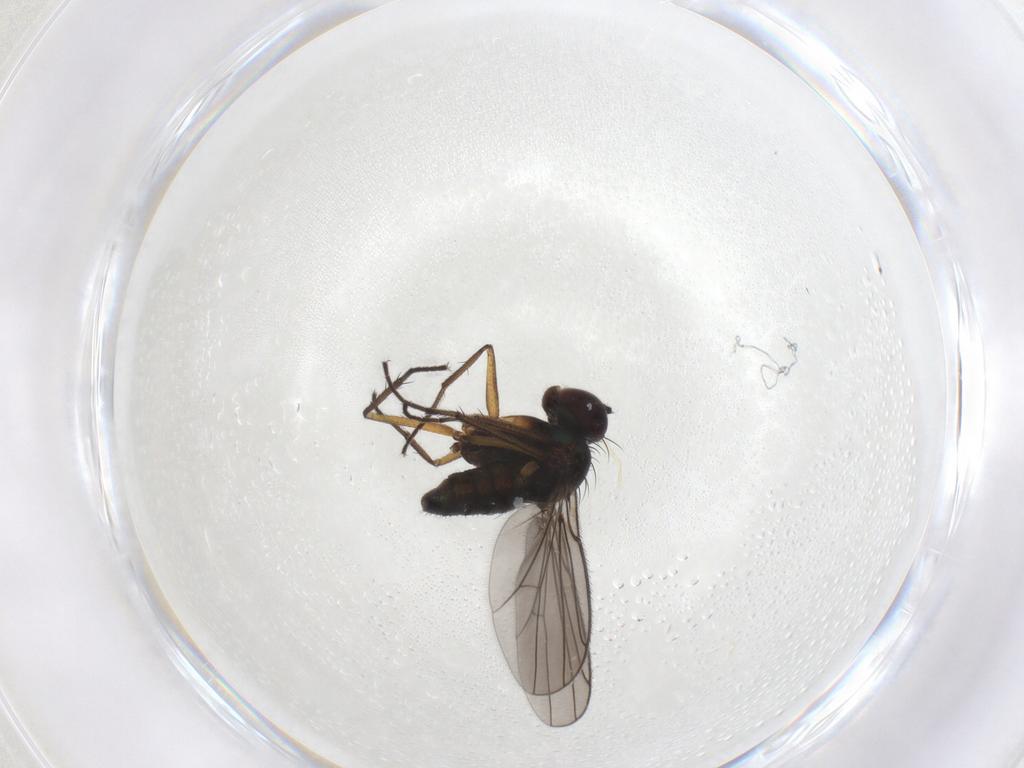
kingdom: Animalia
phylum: Arthropoda
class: Insecta
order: Diptera
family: Dolichopodidae
